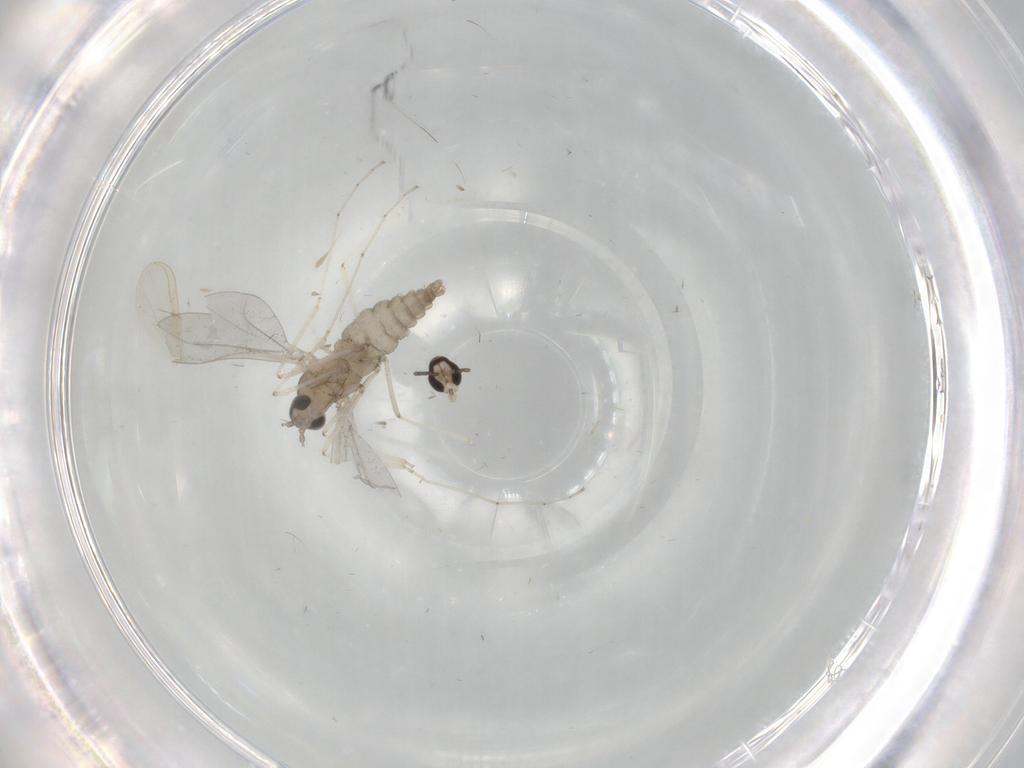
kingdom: Animalia
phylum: Arthropoda
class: Insecta
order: Diptera
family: Cecidomyiidae
